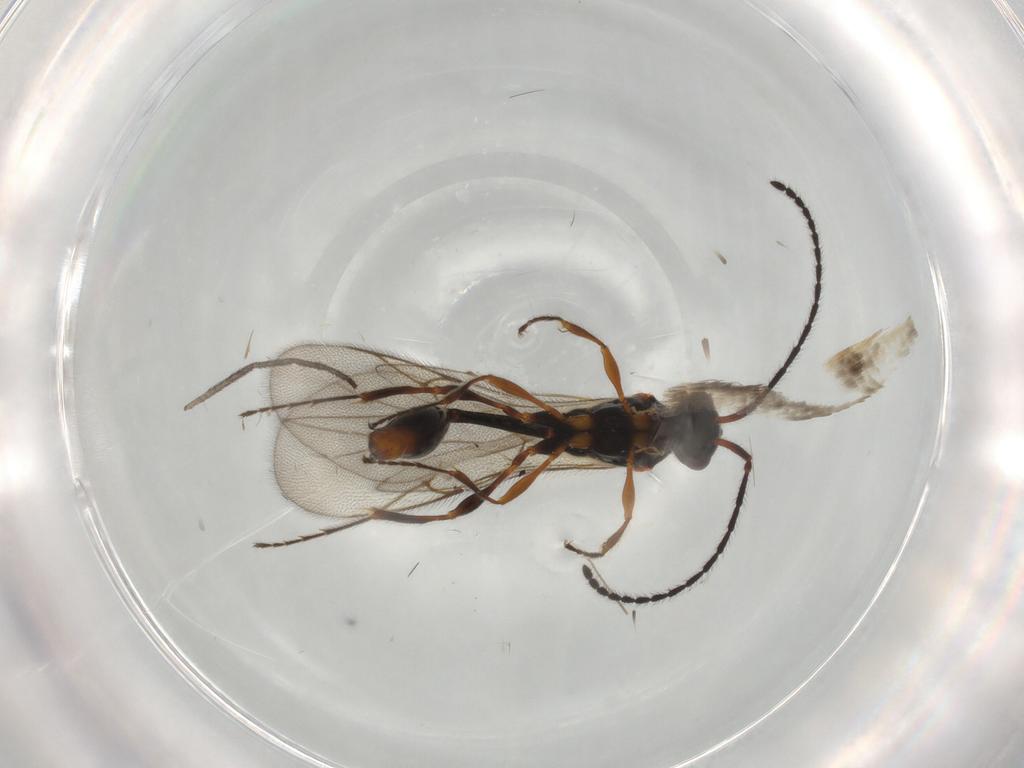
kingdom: Animalia
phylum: Arthropoda
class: Insecta
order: Hymenoptera
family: Diapriidae
